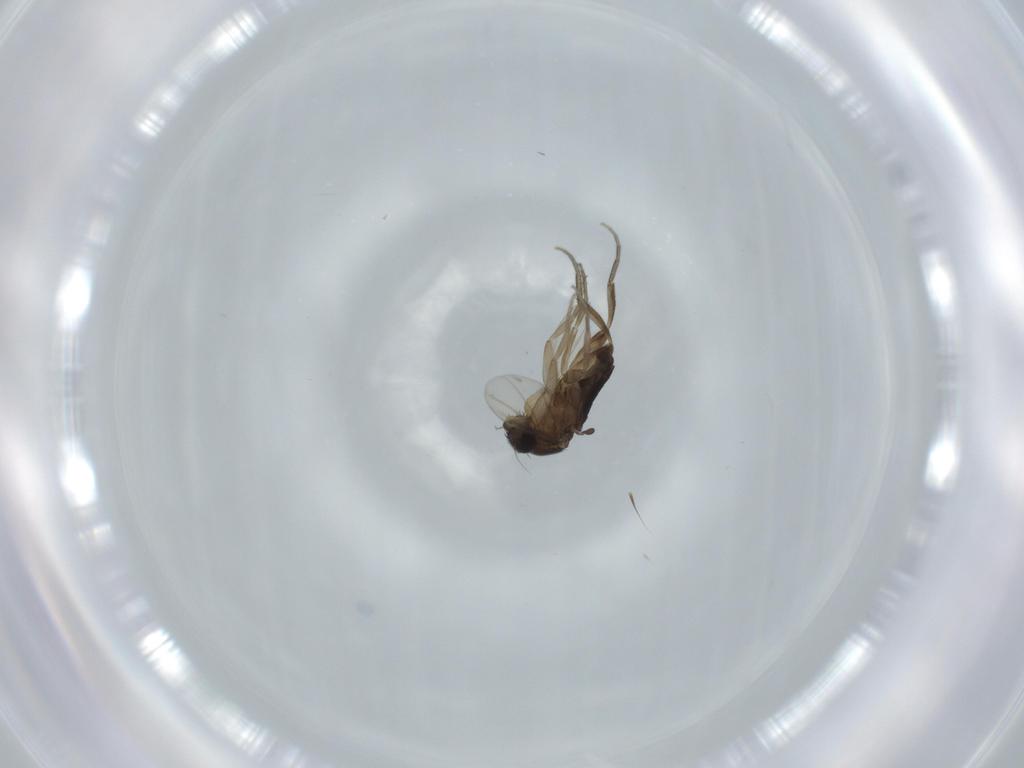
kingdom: Animalia
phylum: Arthropoda
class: Insecta
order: Diptera
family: Phoridae
